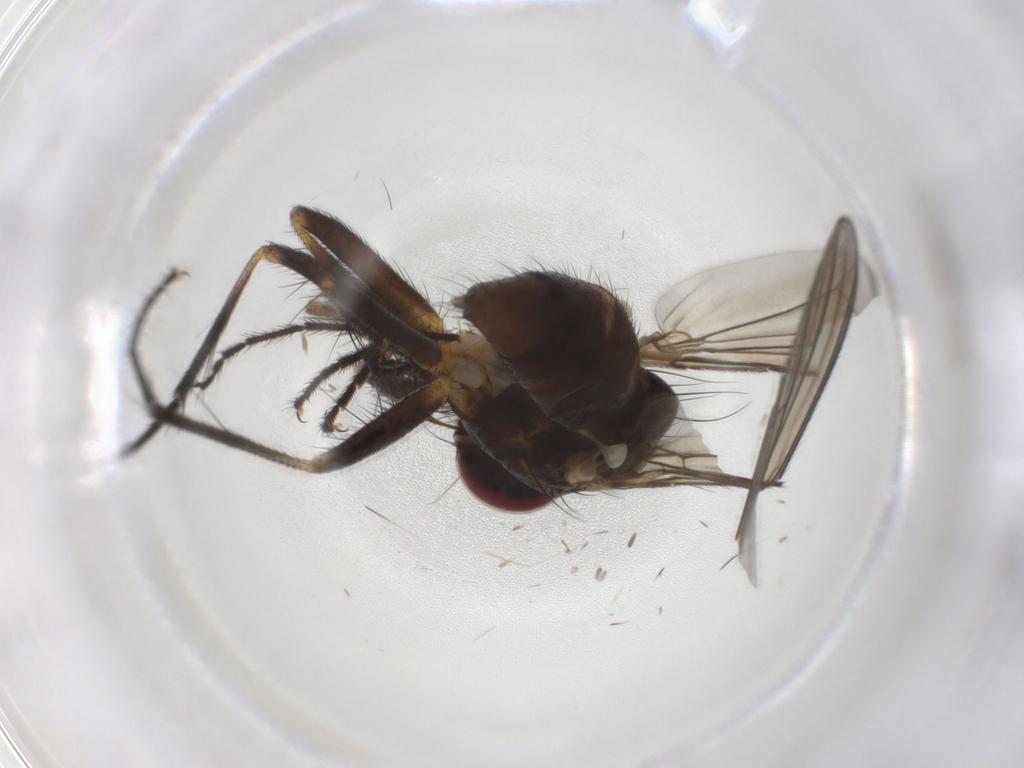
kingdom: Animalia
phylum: Arthropoda
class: Insecta
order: Diptera
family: Anthomyiidae
